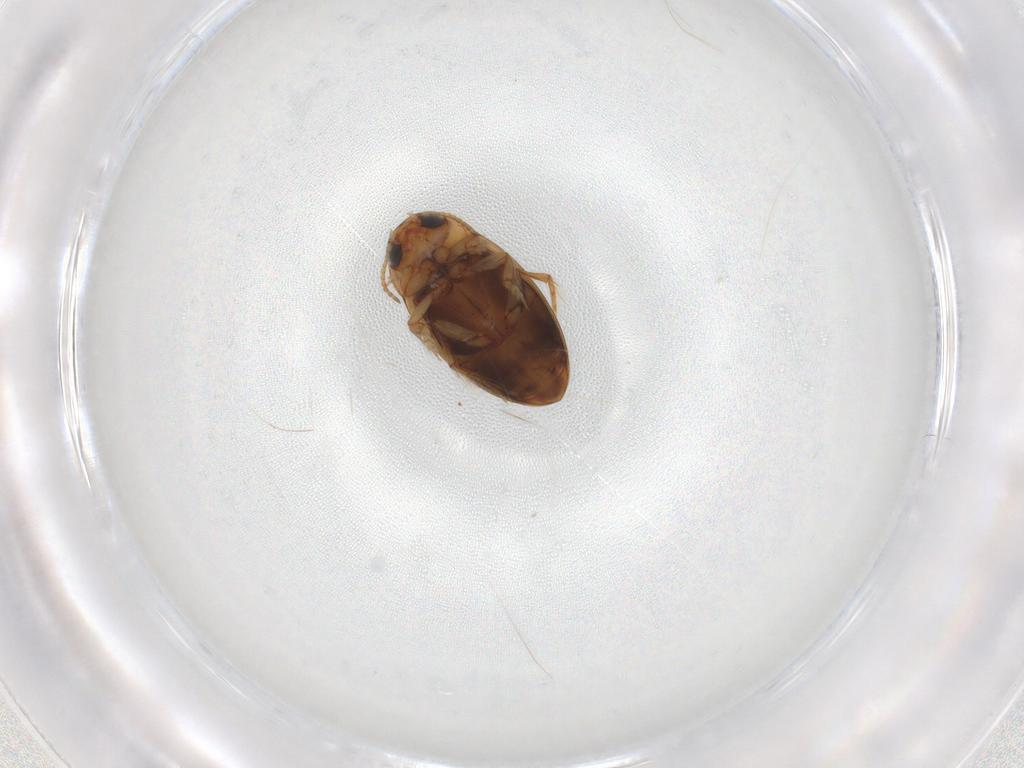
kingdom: Animalia
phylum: Arthropoda
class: Insecta
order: Coleoptera
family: Dytiscidae
